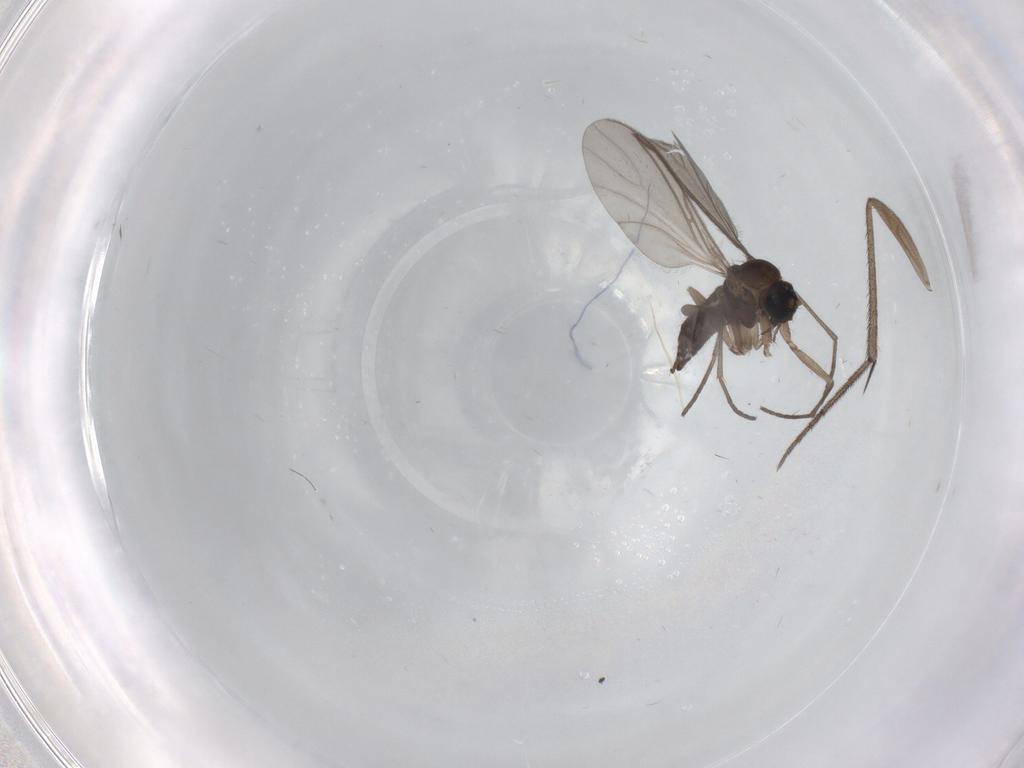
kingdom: Animalia
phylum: Arthropoda
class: Insecta
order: Diptera
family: Mycetophilidae
